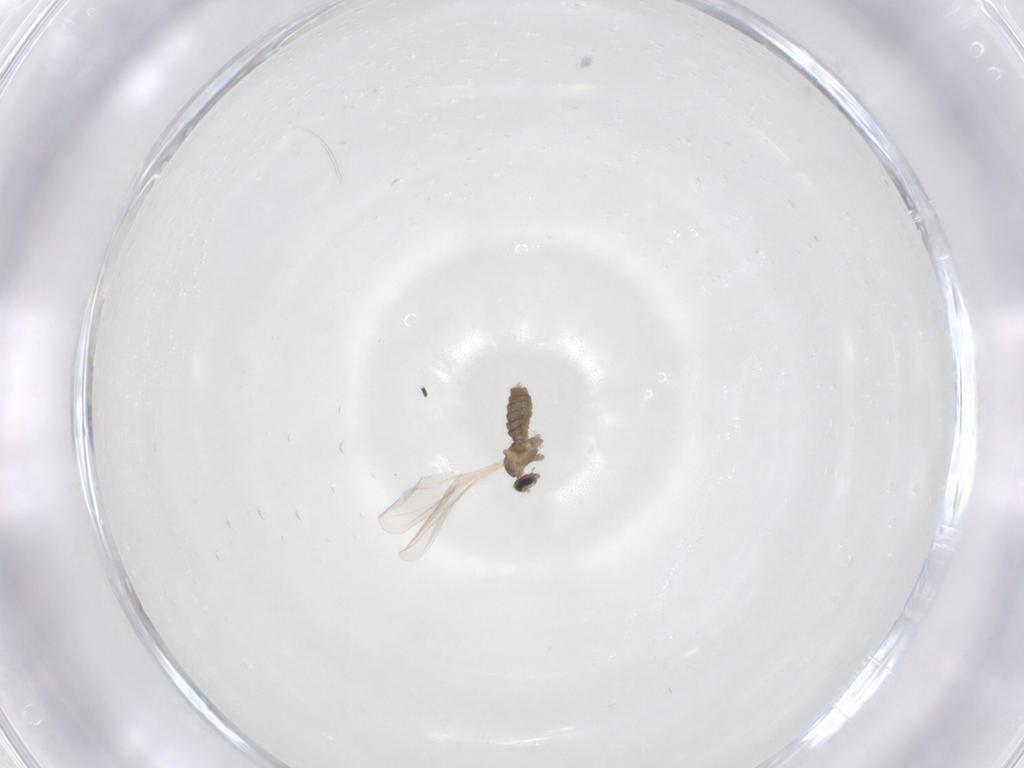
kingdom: Animalia
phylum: Arthropoda
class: Insecta
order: Diptera
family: Cecidomyiidae
